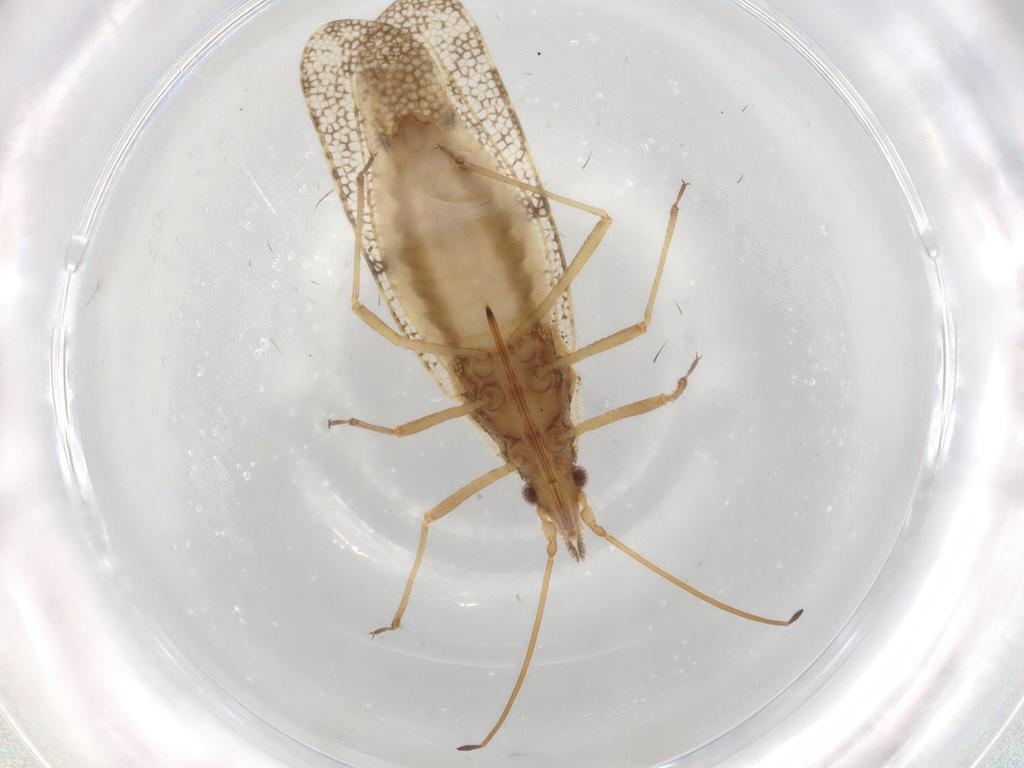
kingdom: Animalia
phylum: Arthropoda
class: Insecta
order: Hemiptera
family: Tingidae
